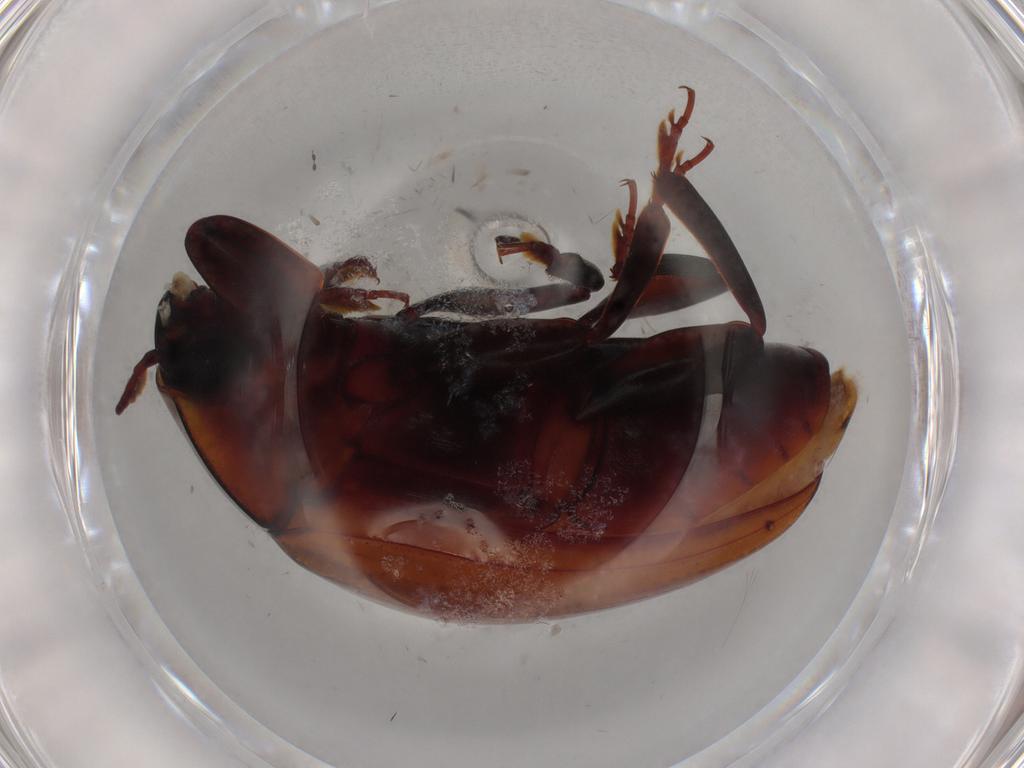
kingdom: Animalia
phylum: Arthropoda
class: Insecta
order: Coleoptera
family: Zopheridae
